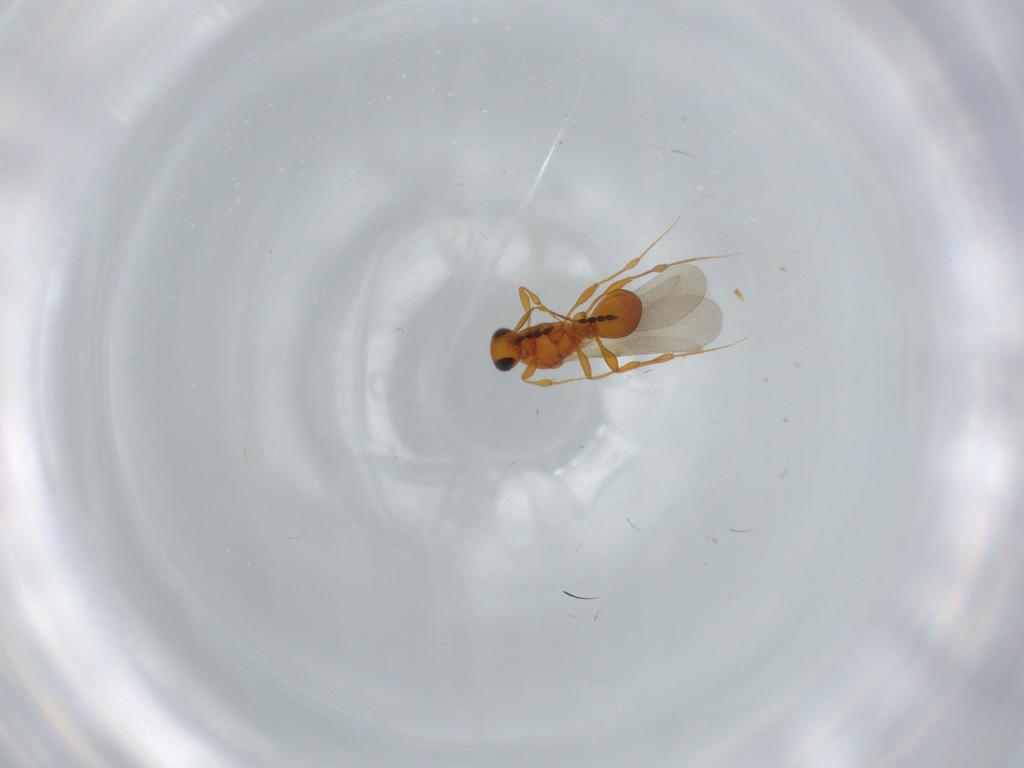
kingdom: Animalia
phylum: Arthropoda
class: Insecta
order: Hymenoptera
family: Platygastridae
